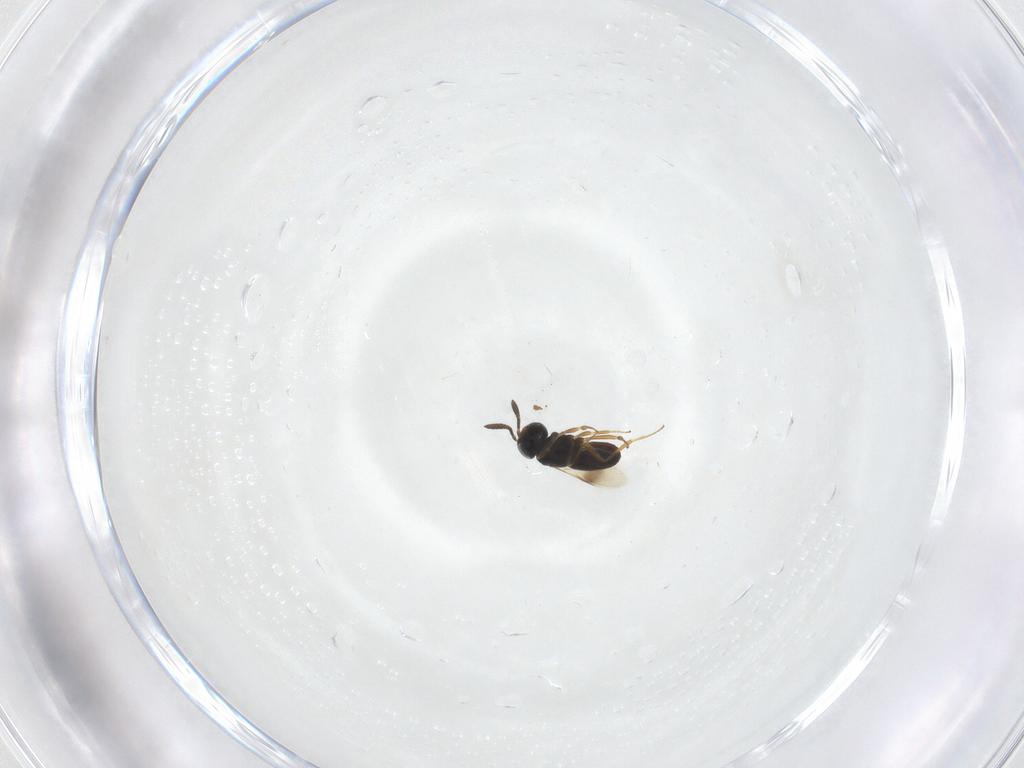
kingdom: Animalia
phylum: Arthropoda
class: Insecta
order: Hymenoptera
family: Scelionidae
